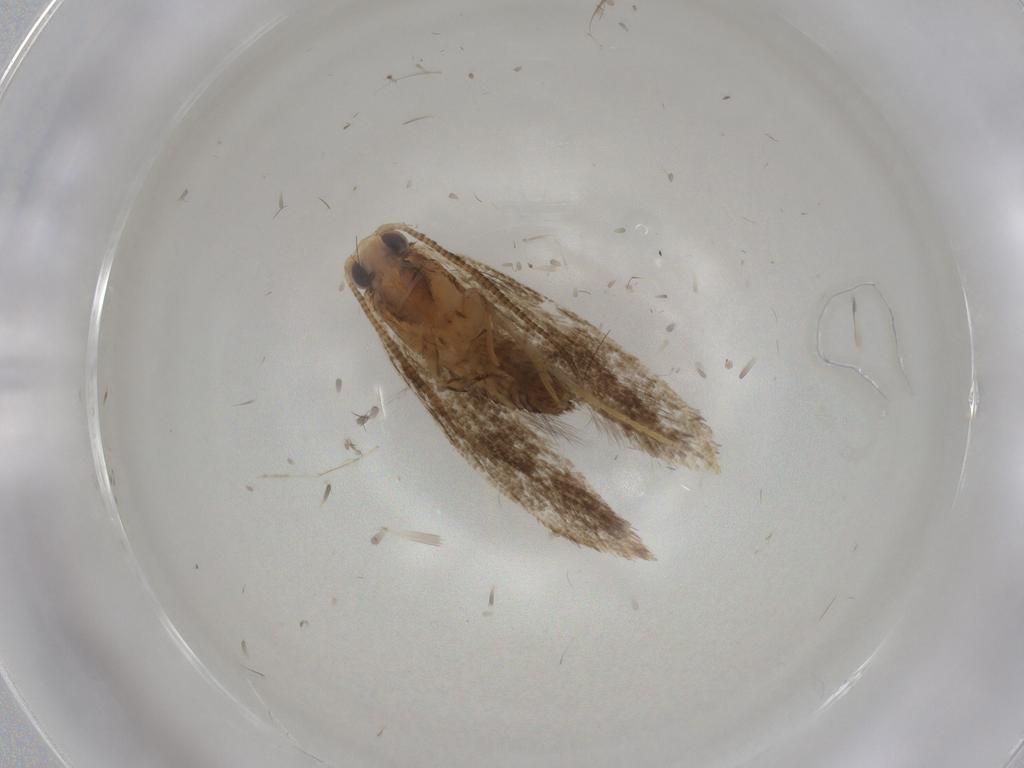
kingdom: Animalia
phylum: Arthropoda
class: Insecta
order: Lepidoptera
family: Tineidae
